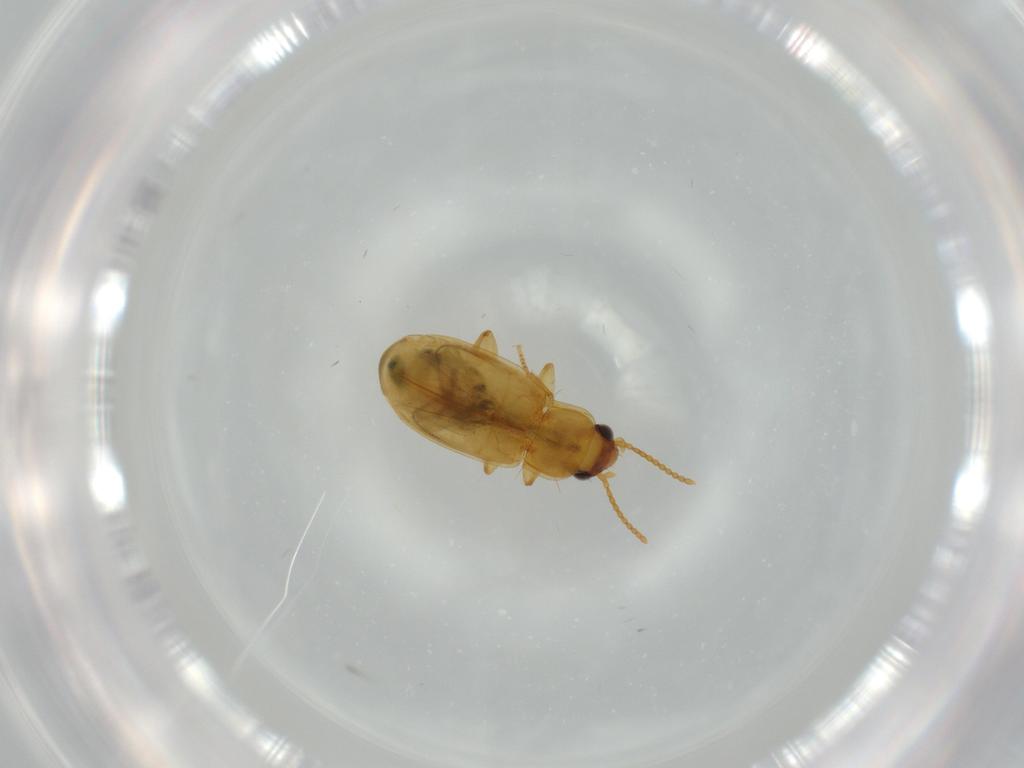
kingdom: Animalia
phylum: Arthropoda
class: Insecta
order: Coleoptera
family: Carabidae
